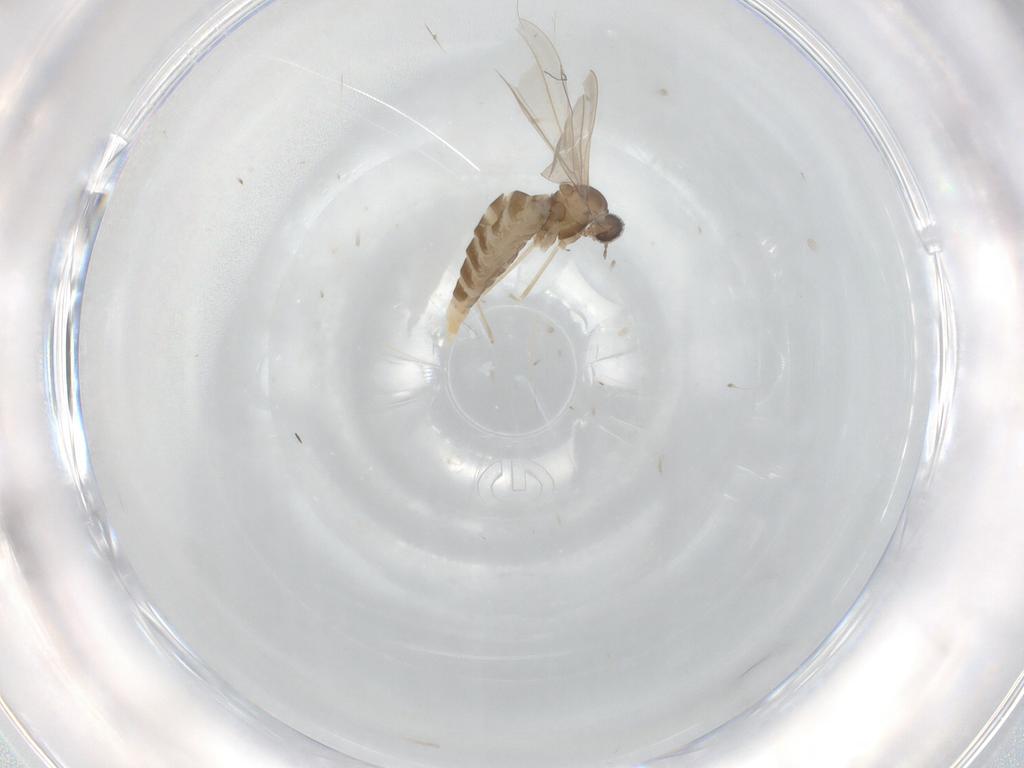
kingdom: Animalia
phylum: Arthropoda
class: Insecta
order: Diptera
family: Cecidomyiidae
